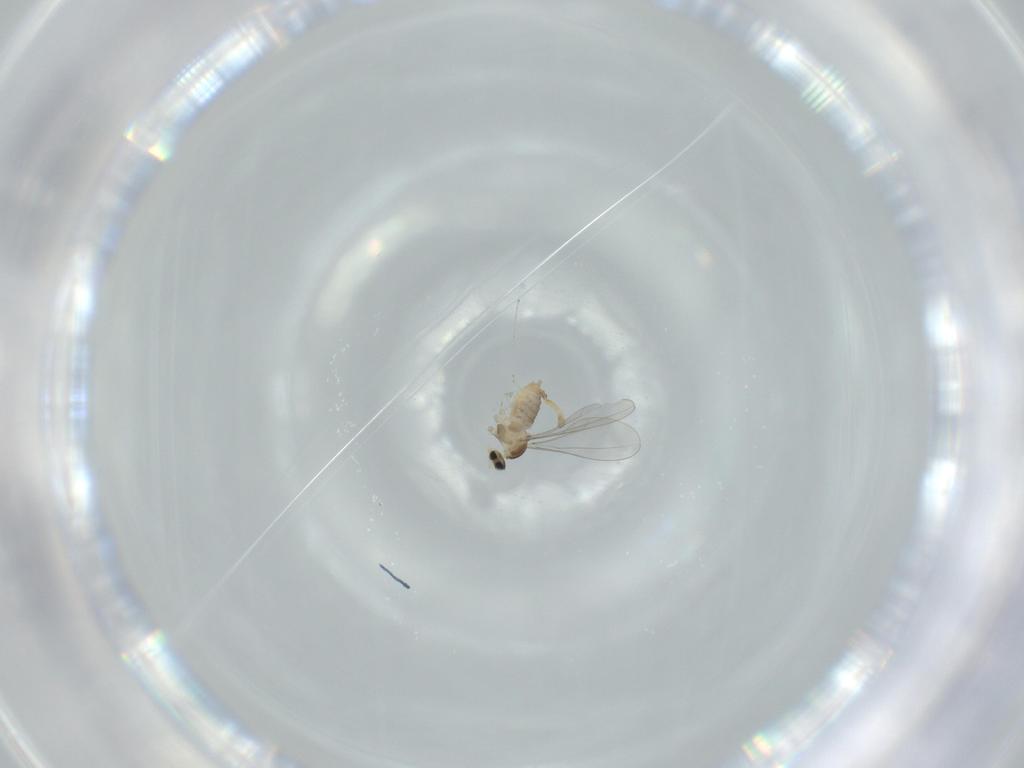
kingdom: Animalia
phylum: Arthropoda
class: Insecta
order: Diptera
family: Cecidomyiidae
